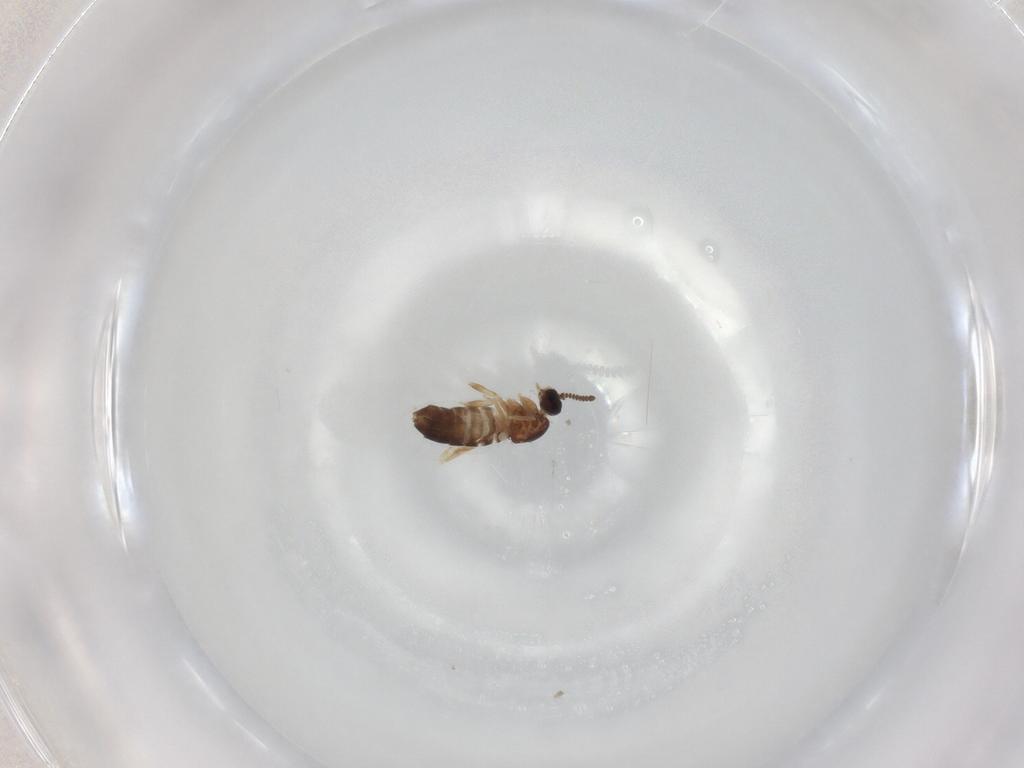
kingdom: Animalia
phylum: Arthropoda
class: Insecta
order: Diptera
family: Scatopsidae
